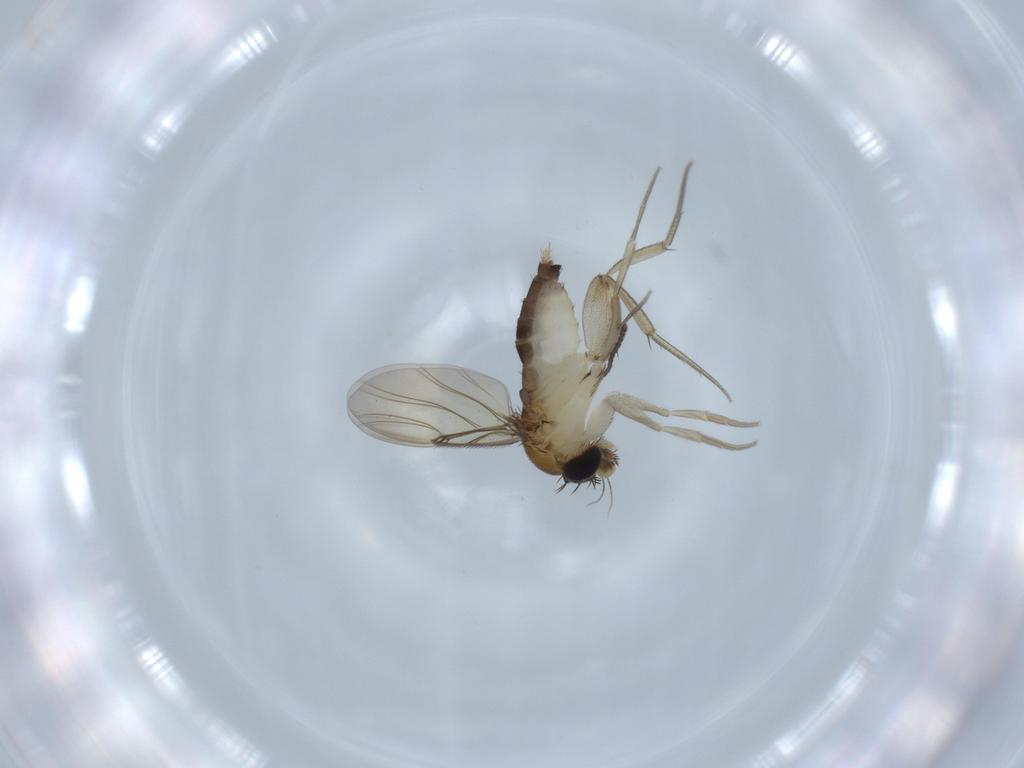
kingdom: Animalia
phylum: Arthropoda
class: Insecta
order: Diptera
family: Sciaridae
